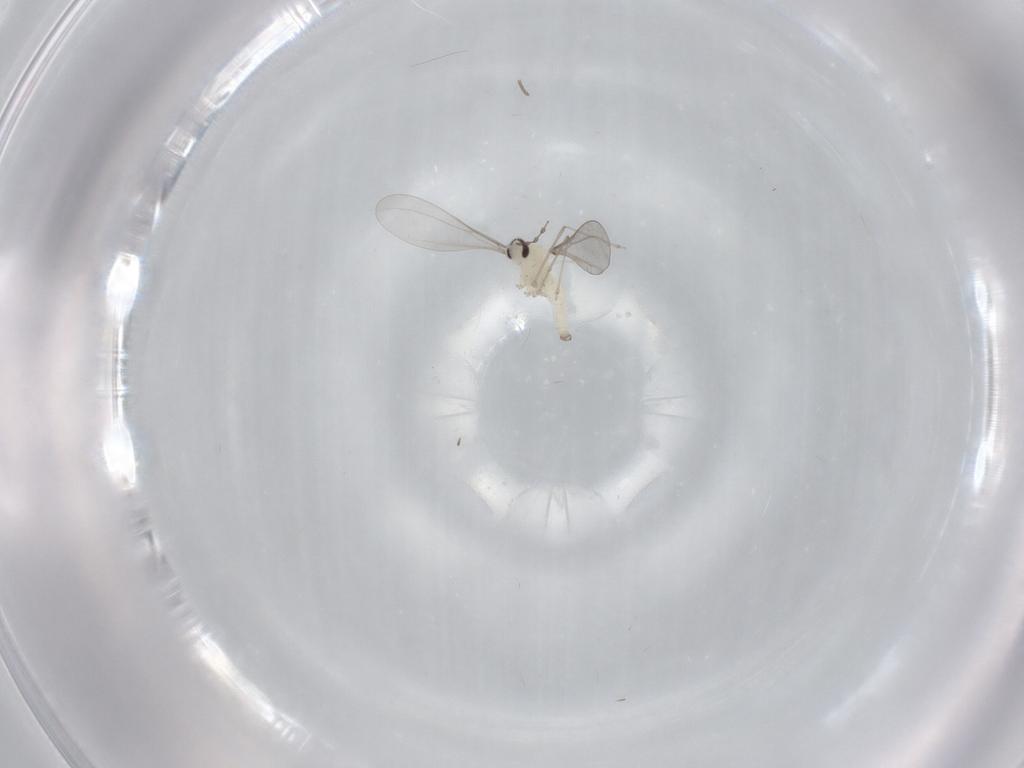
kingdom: Animalia
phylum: Arthropoda
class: Insecta
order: Diptera
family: Cecidomyiidae
